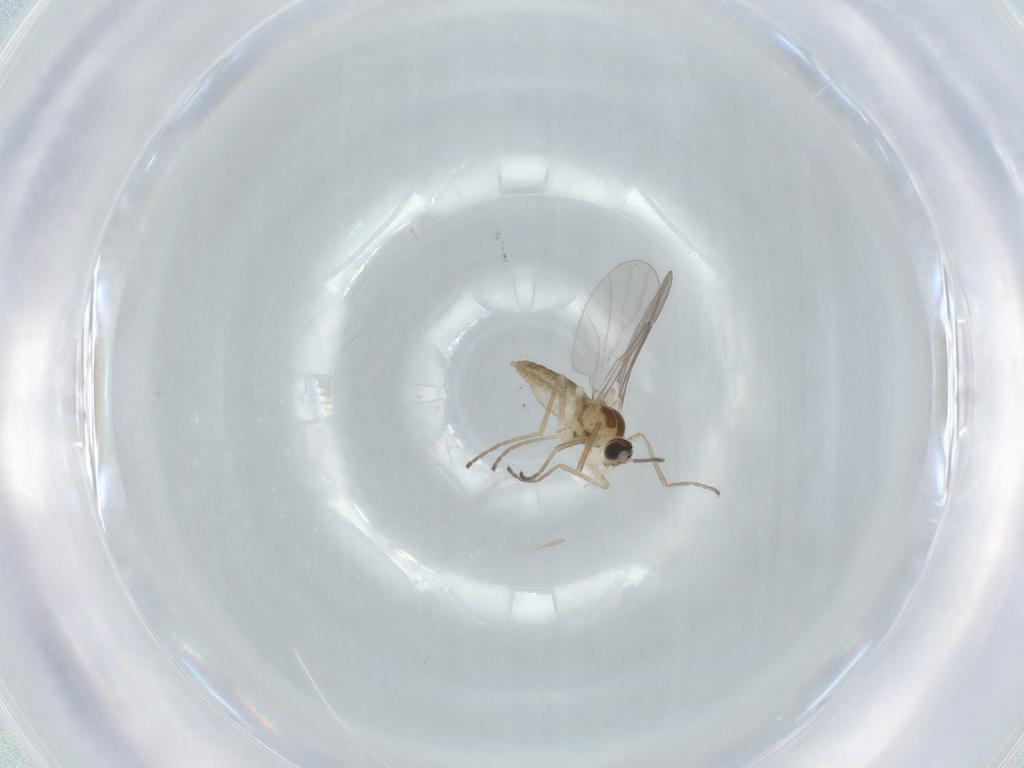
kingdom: Animalia
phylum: Arthropoda
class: Insecta
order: Diptera
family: Cecidomyiidae
